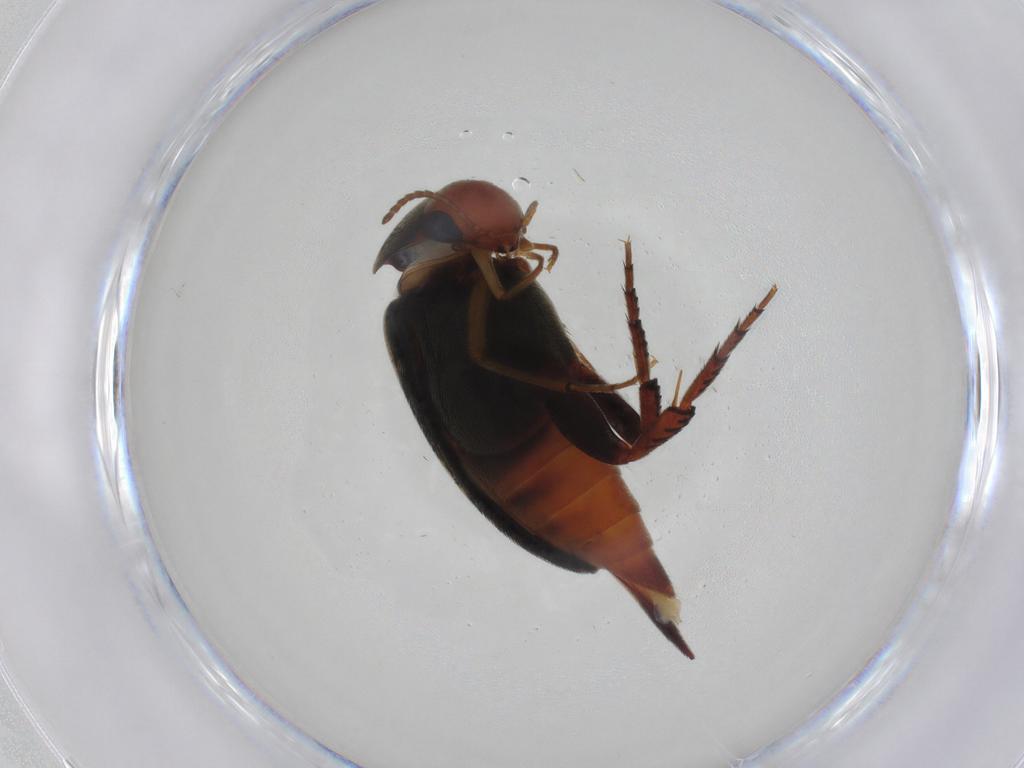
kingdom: Animalia
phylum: Arthropoda
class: Insecta
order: Coleoptera
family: Mordellidae
